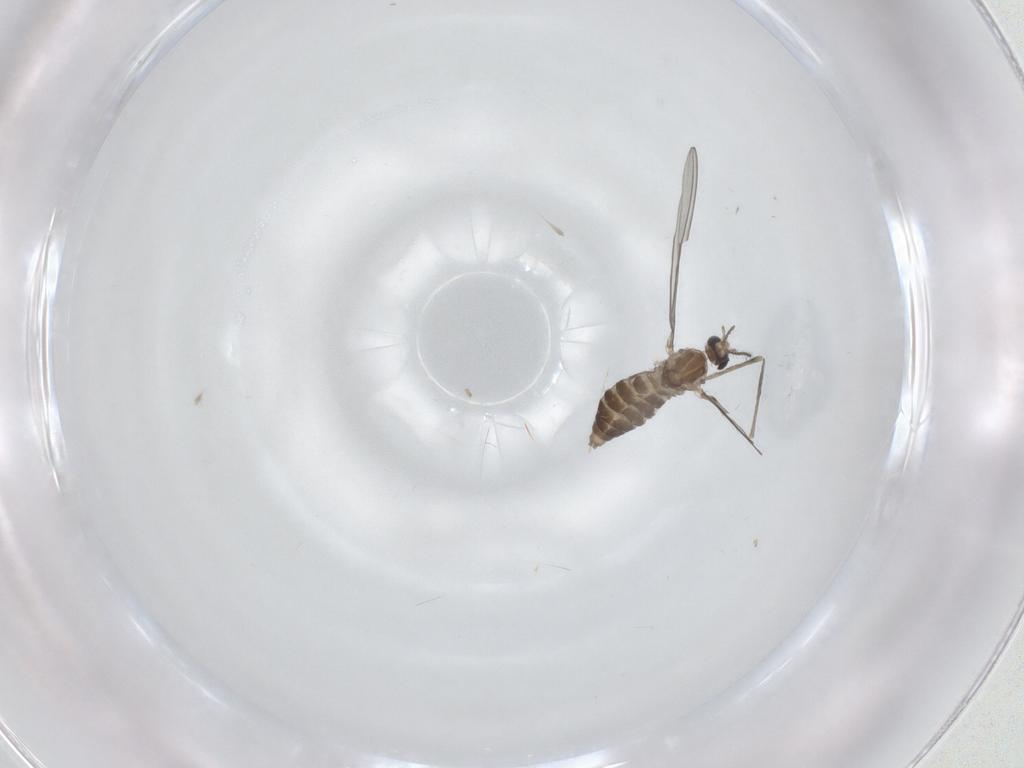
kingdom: Animalia
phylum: Arthropoda
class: Insecta
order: Diptera
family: Cecidomyiidae
